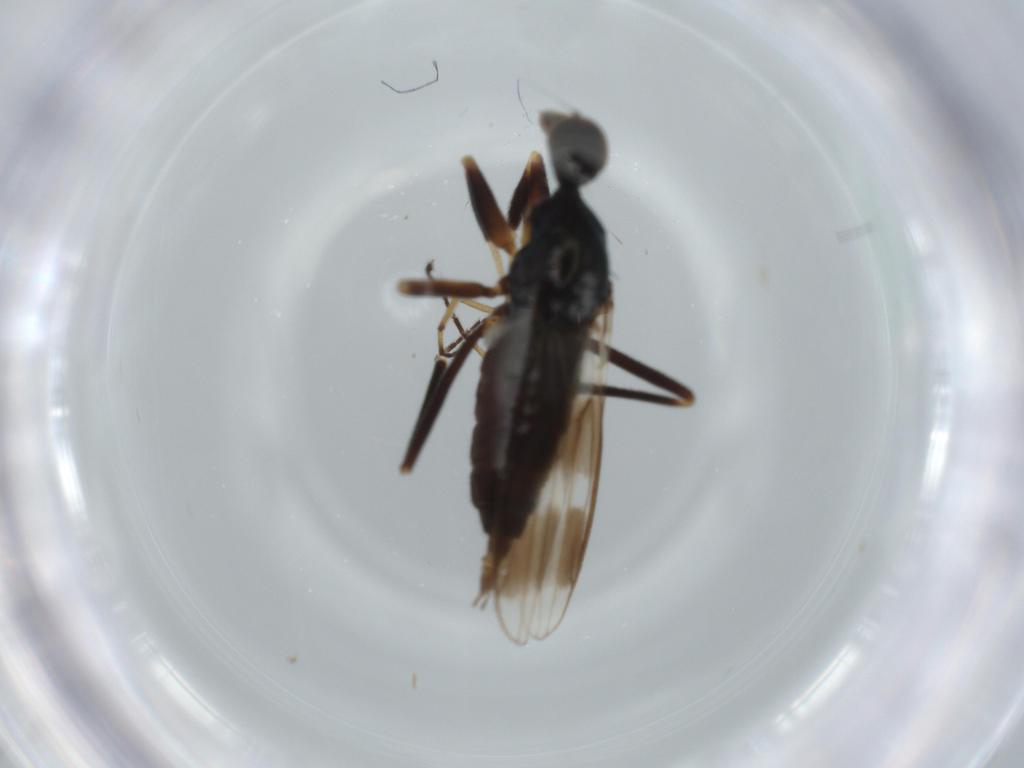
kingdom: Animalia
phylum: Arthropoda
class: Insecta
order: Diptera
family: Hybotidae
